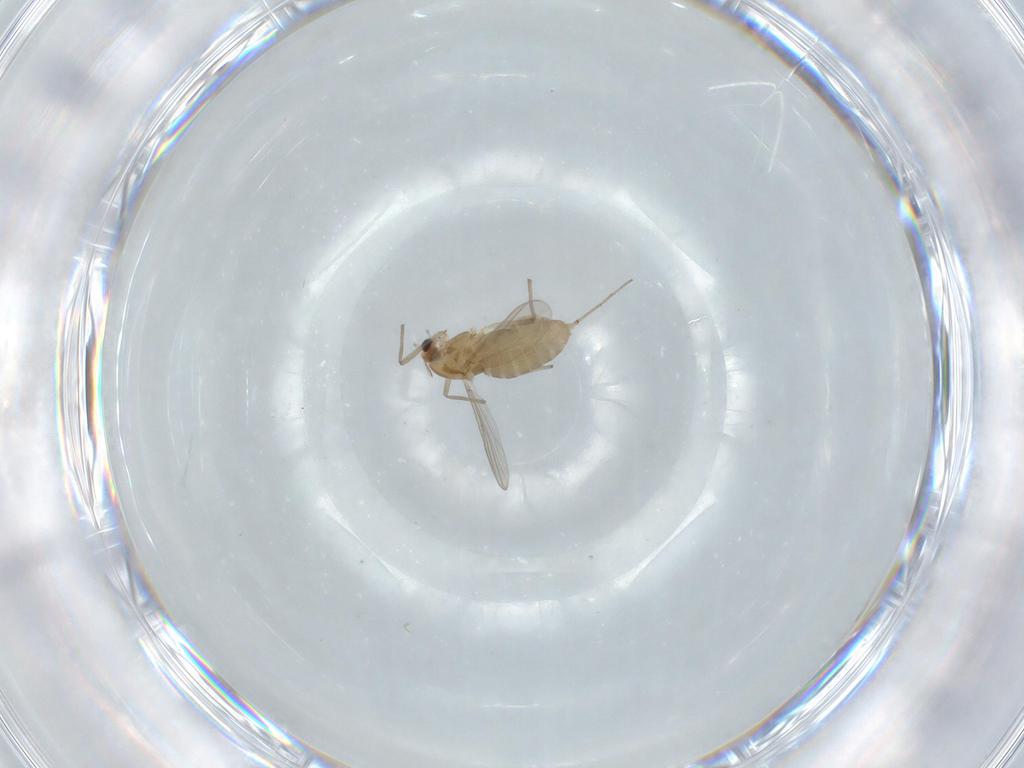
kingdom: Animalia
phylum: Arthropoda
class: Insecta
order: Diptera
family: Chironomidae
